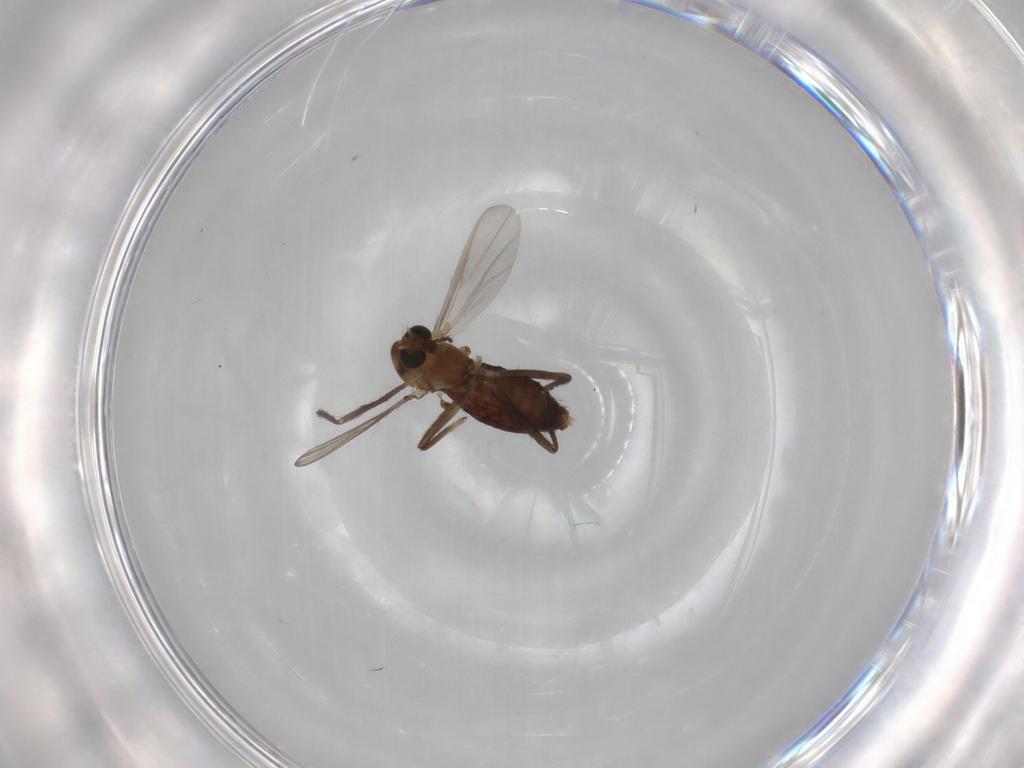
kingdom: Animalia
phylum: Arthropoda
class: Insecta
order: Diptera
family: Chironomidae
